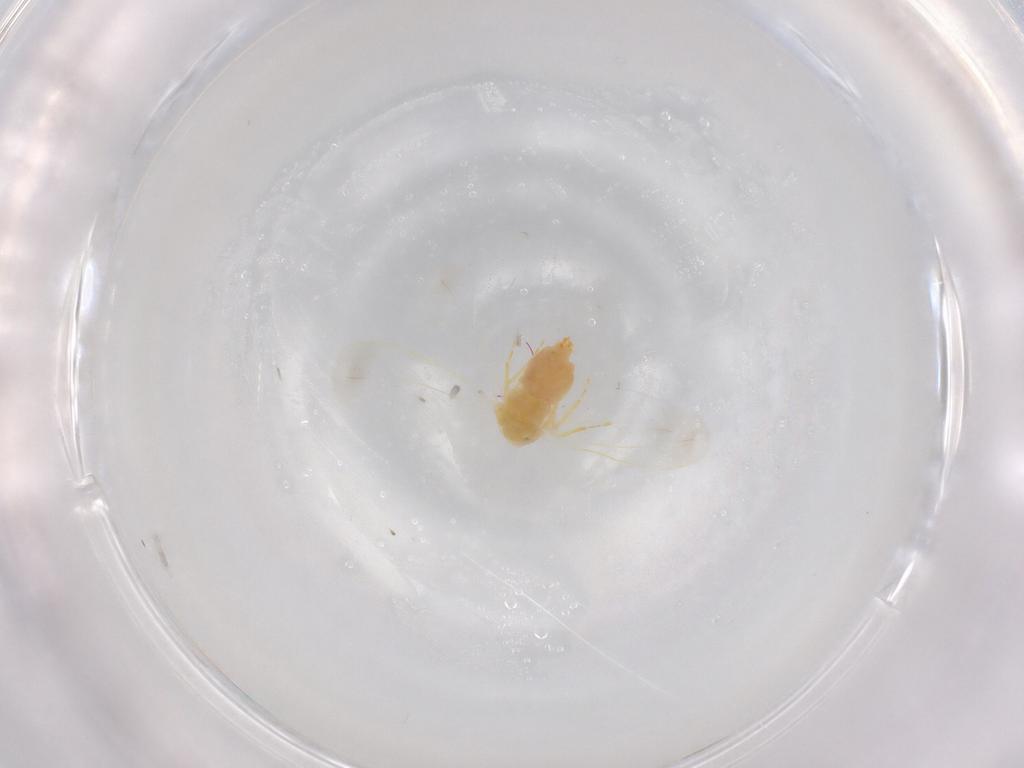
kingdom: Animalia
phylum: Arthropoda
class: Insecta
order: Hemiptera
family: Aleyrodidae
